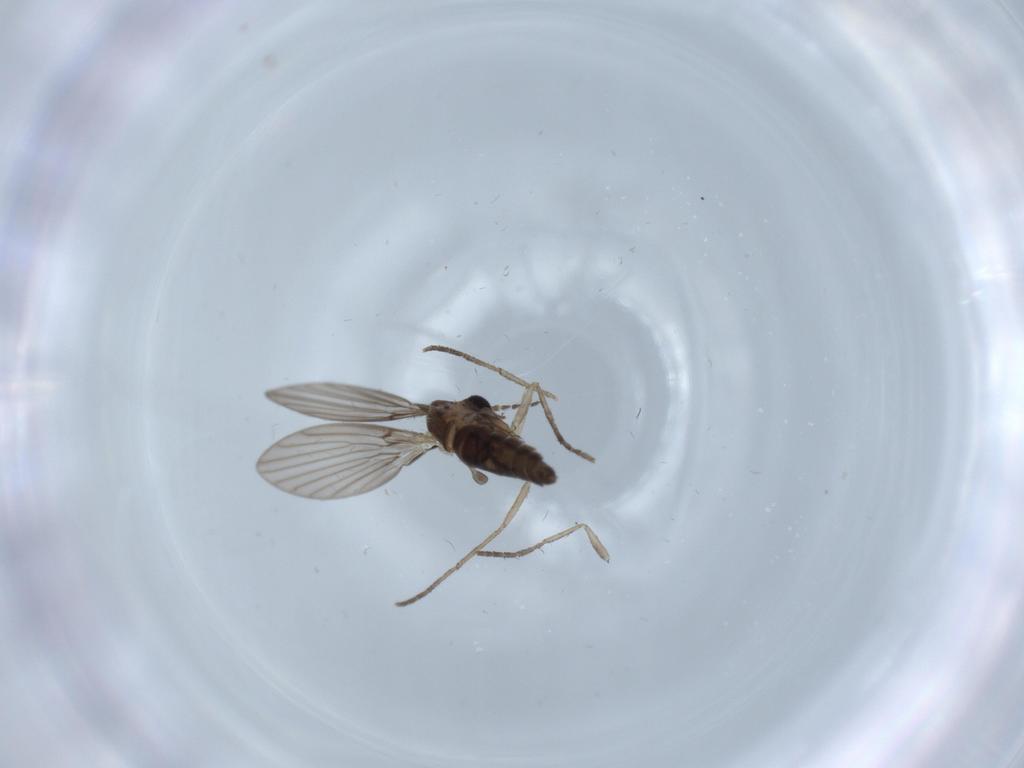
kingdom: Animalia
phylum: Arthropoda
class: Insecta
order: Diptera
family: Psychodidae
